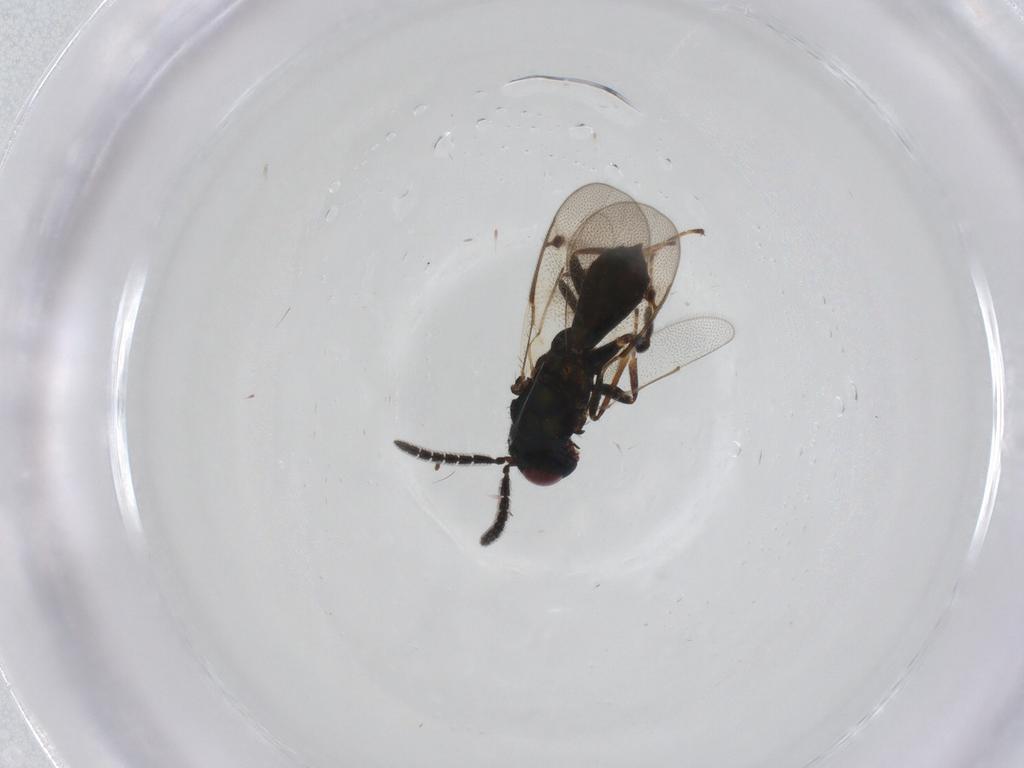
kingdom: Animalia
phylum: Arthropoda
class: Insecta
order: Hymenoptera
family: Pteromalidae
